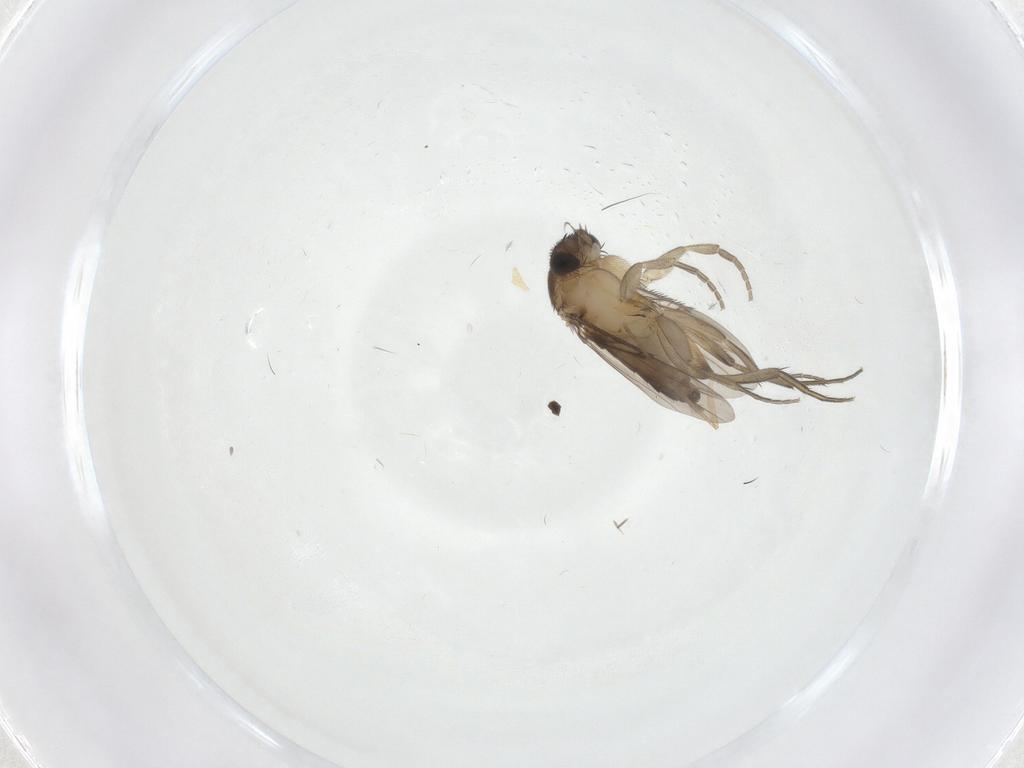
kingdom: Animalia
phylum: Arthropoda
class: Insecta
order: Diptera
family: Phoridae
